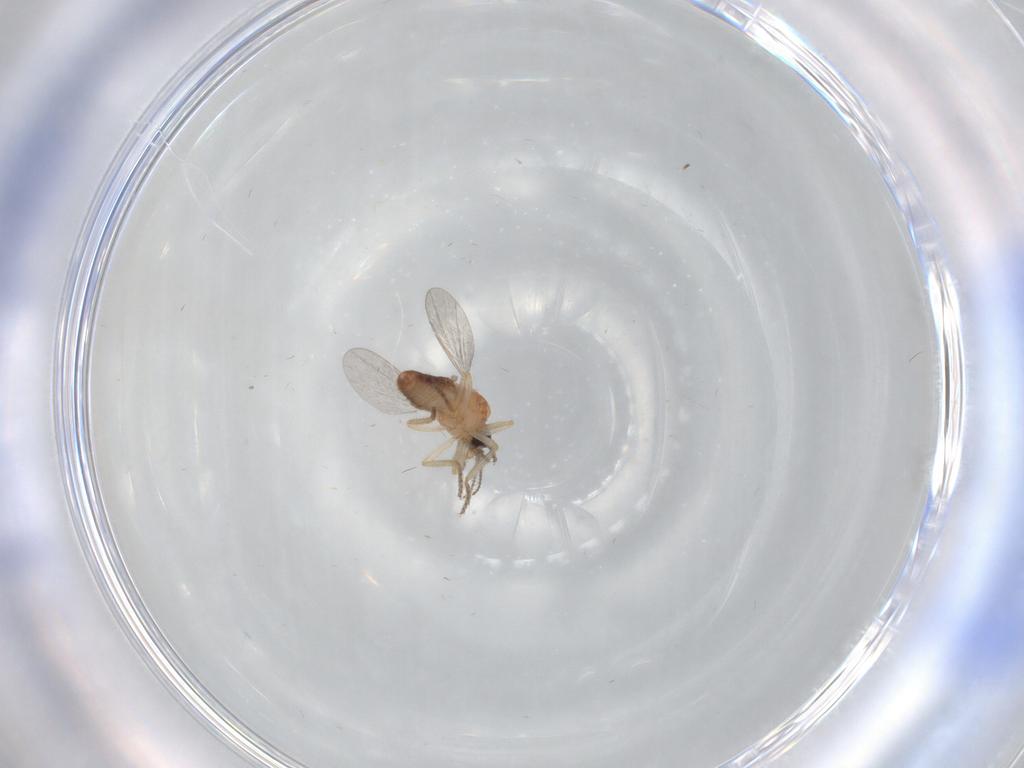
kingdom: Animalia
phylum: Arthropoda
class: Insecta
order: Diptera
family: Ceratopogonidae
